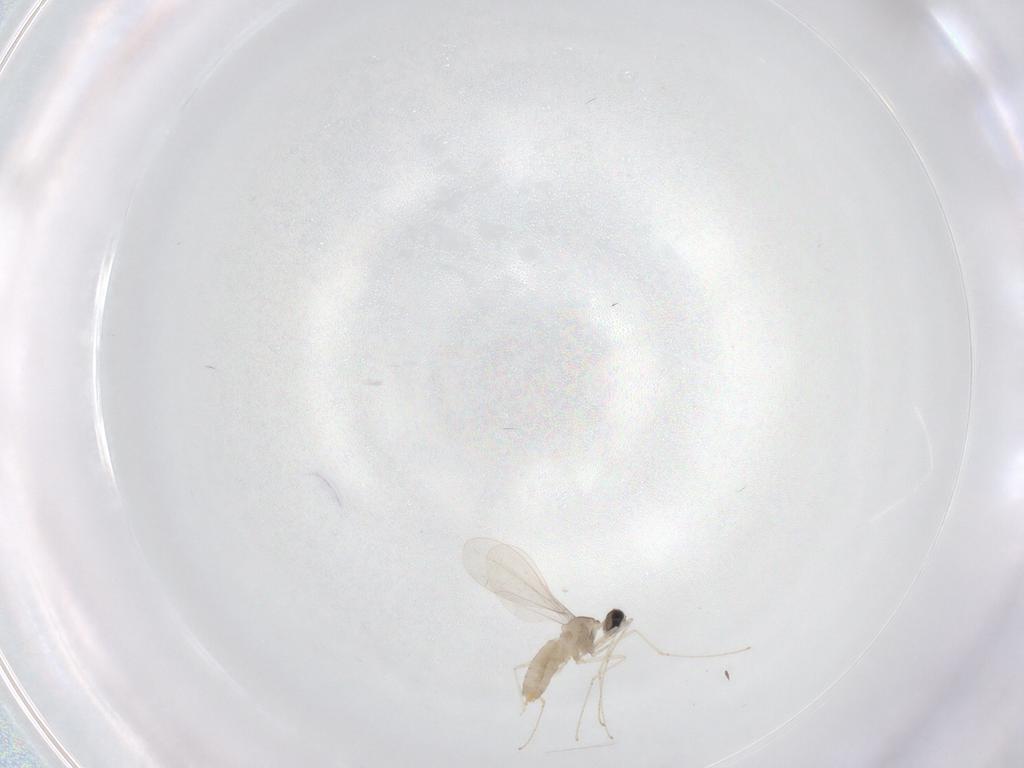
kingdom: Animalia
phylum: Arthropoda
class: Insecta
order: Diptera
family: Cecidomyiidae
